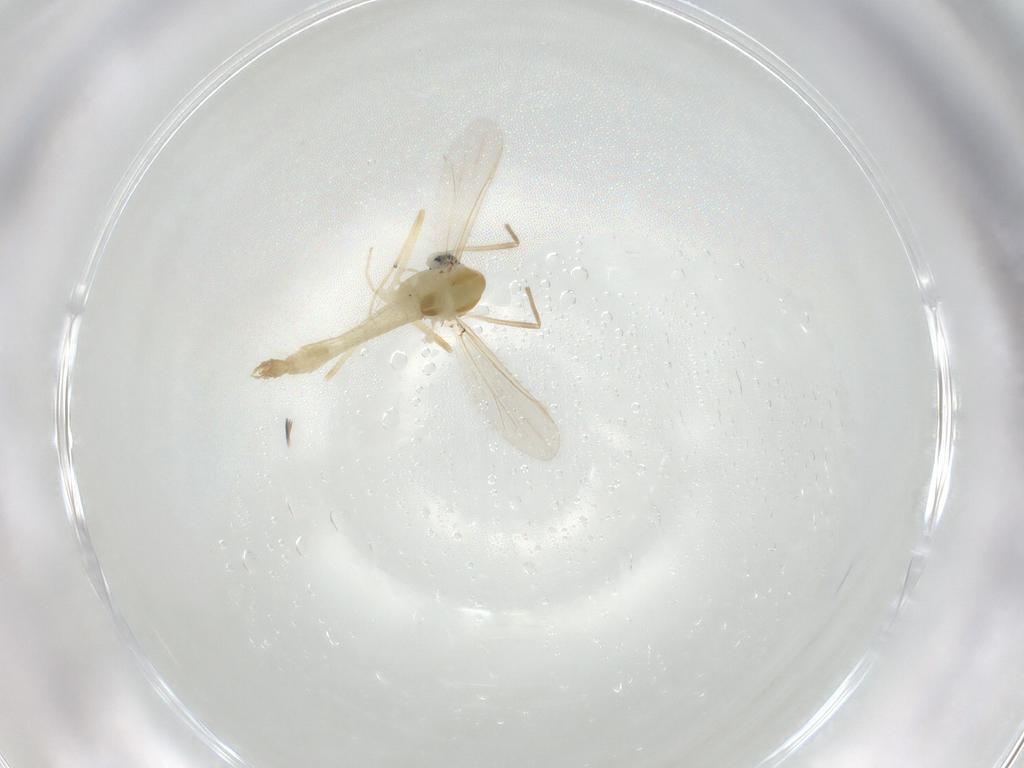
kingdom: Animalia
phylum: Arthropoda
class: Insecta
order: Diptera
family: Chironomidae
